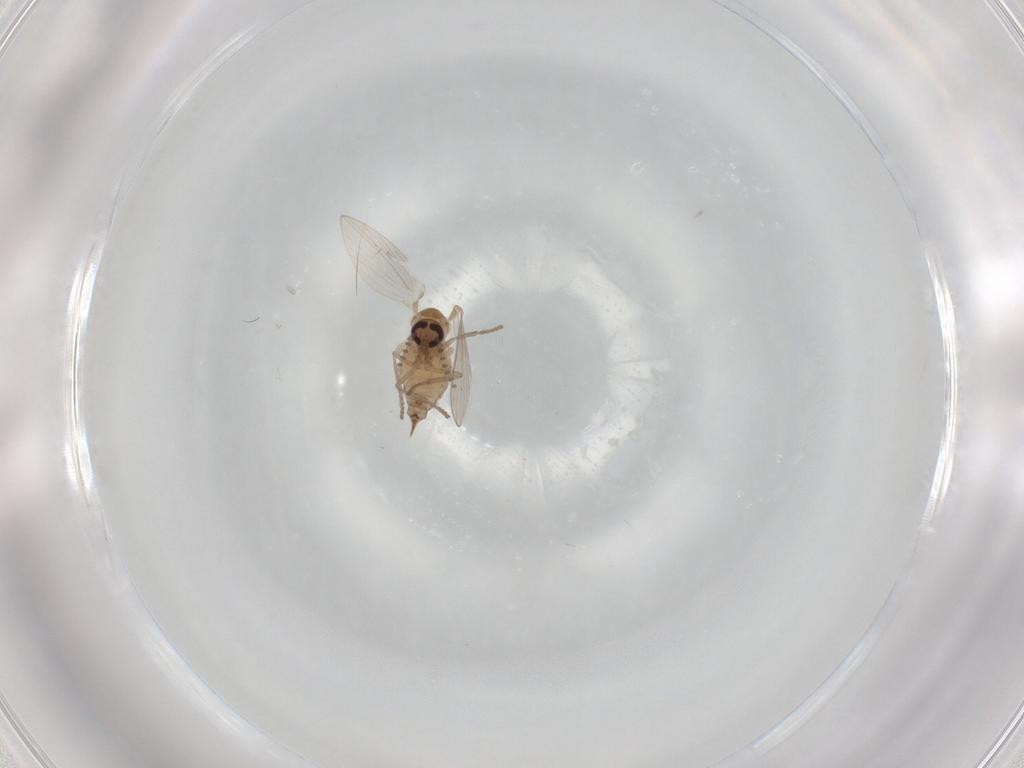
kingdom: Animalia
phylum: Arthropoda
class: Insecta
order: Diptera
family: Psychodidae
